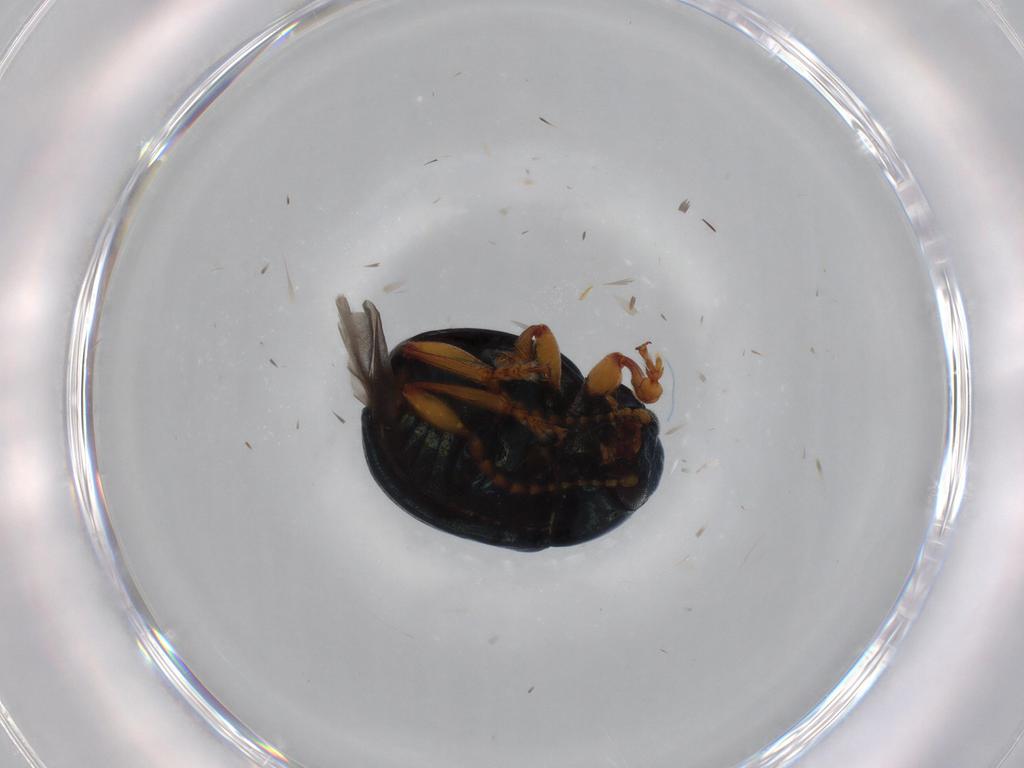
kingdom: Animalia
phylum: Arthropoda
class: Insecta
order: Coleoptera
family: Chrysomelidae
